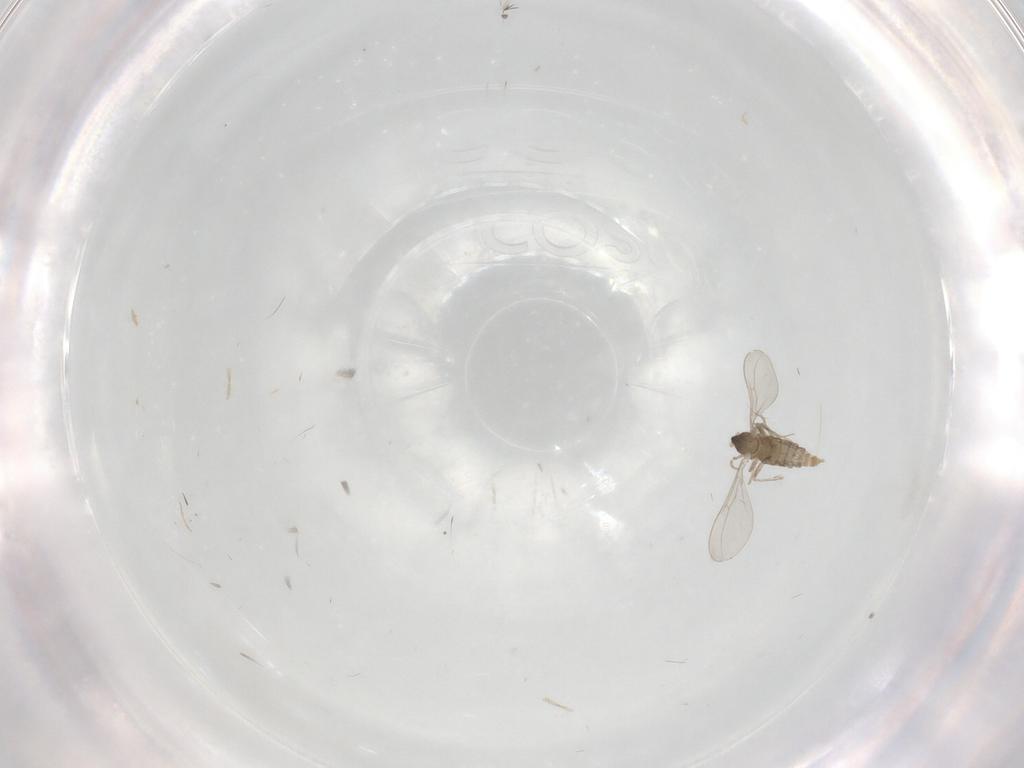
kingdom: Animalia
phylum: Arthropoda
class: Insecta
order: Diptera
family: Cecidomyiidae
